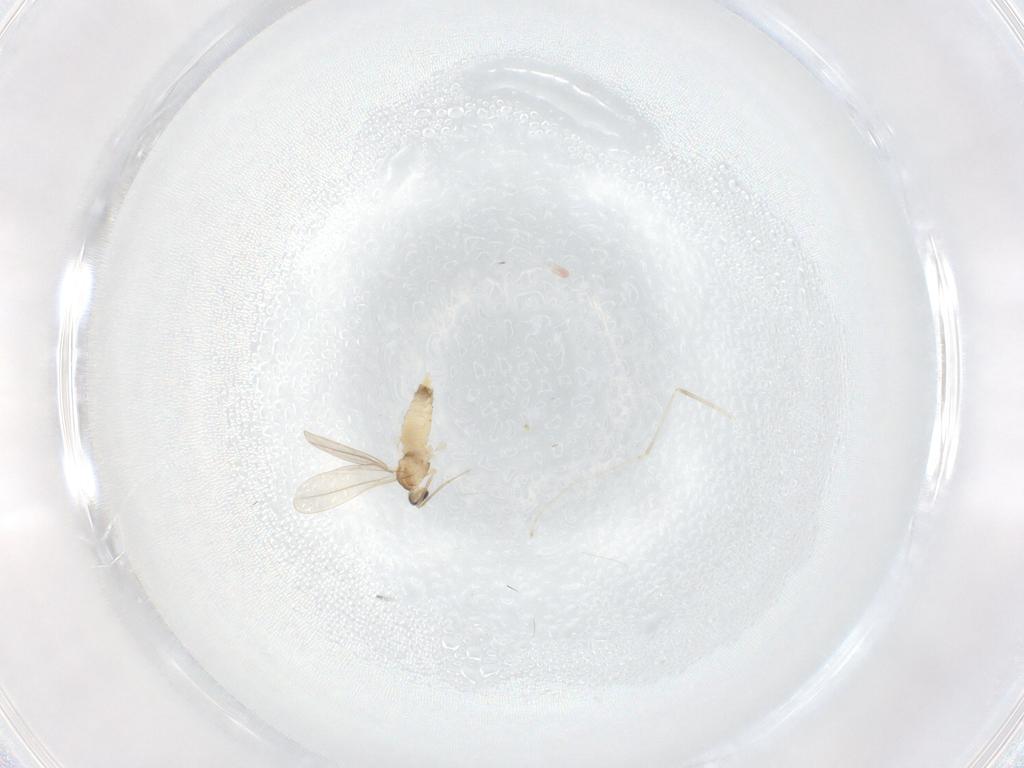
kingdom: Animalia
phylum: Arthropoda
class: Insecta
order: Diptera
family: Cecidomyiidae
